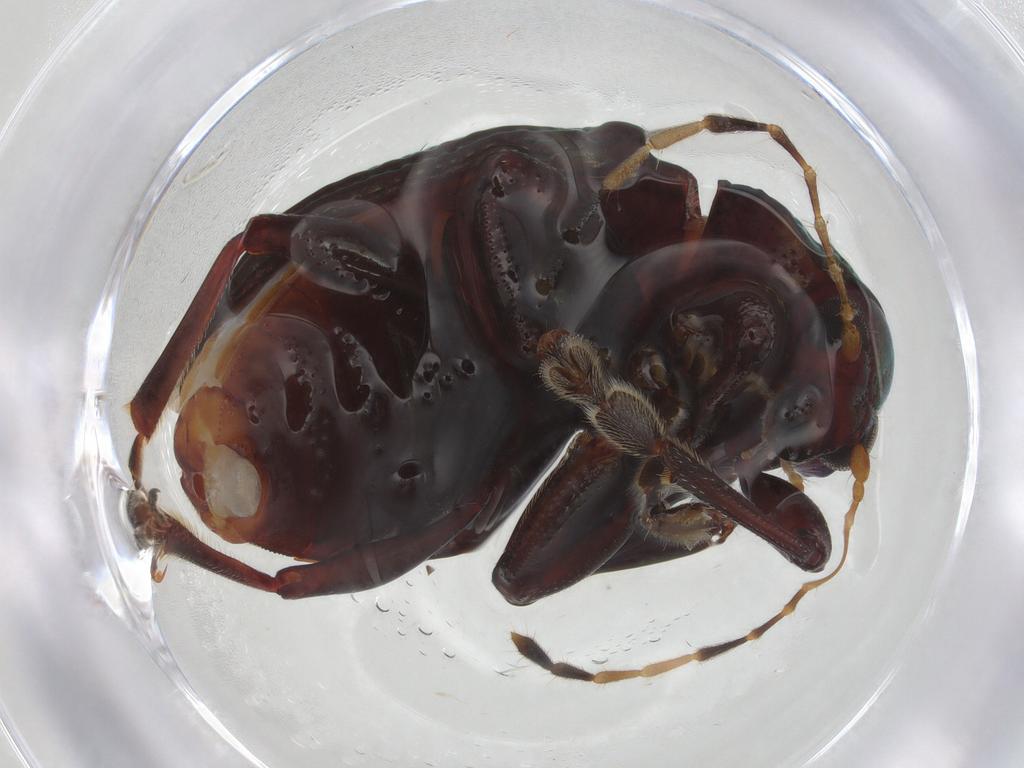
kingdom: Animalia
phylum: Arthropoda
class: Insecta
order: Coleoptera
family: Chrysomelidae
